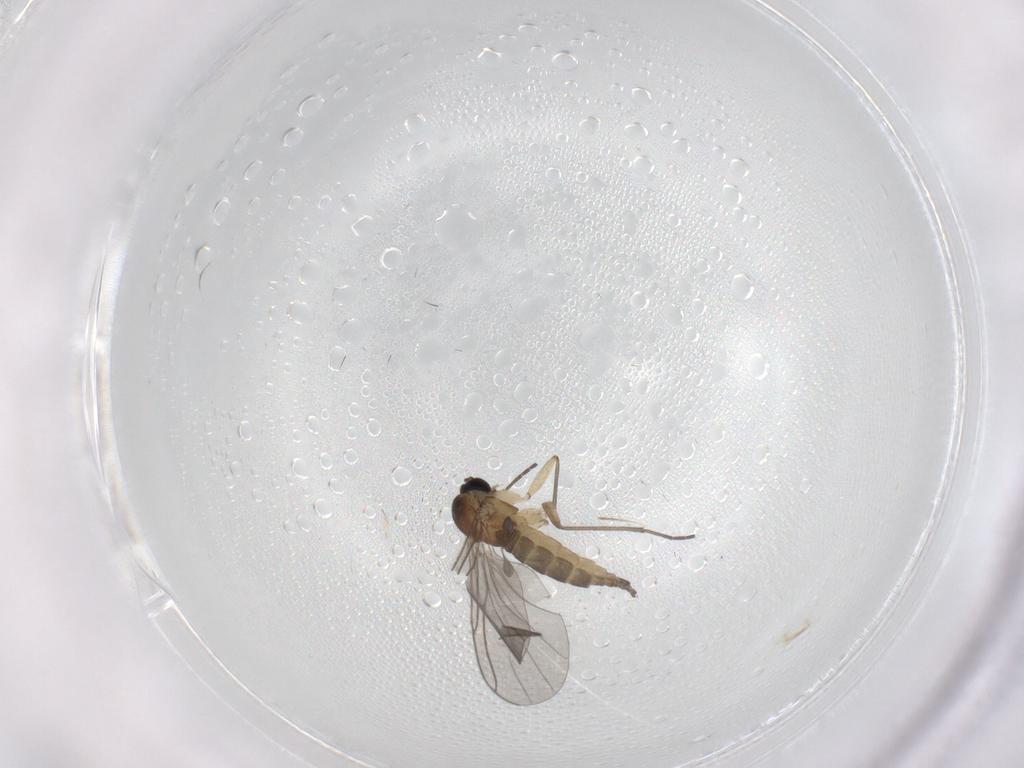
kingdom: Animalia
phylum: Arthropoda
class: Insecta
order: Diptera
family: Sciaridae
